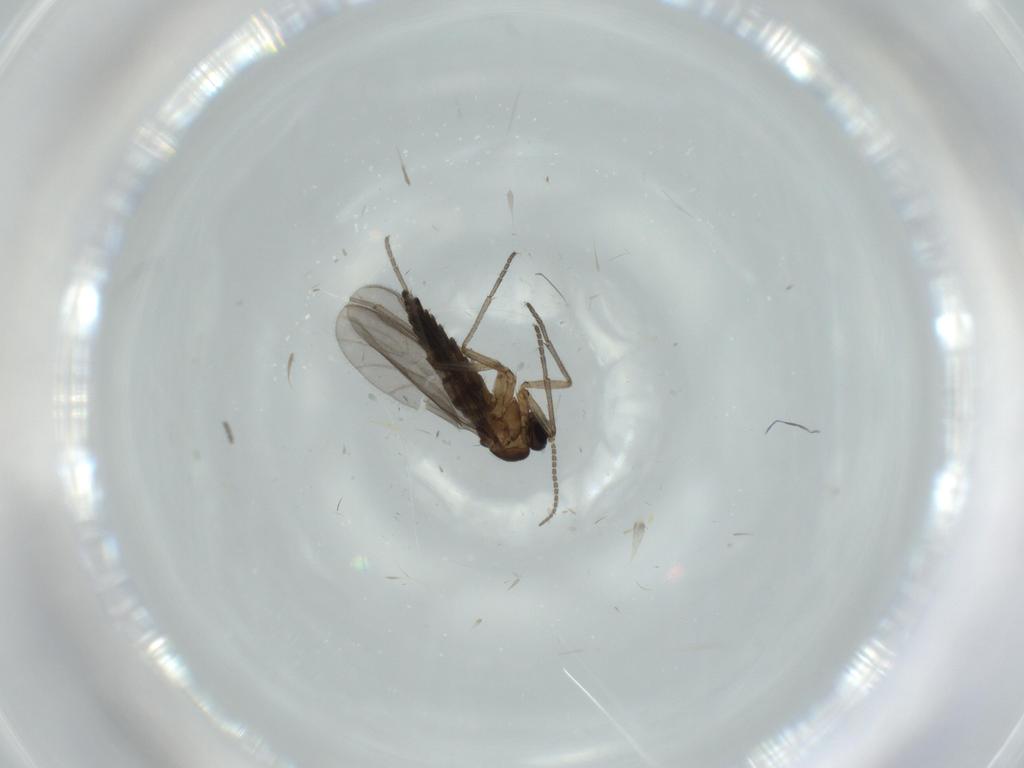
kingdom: Animalia
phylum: Arthropoda
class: Insecta
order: Diptera
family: Sciaridae
